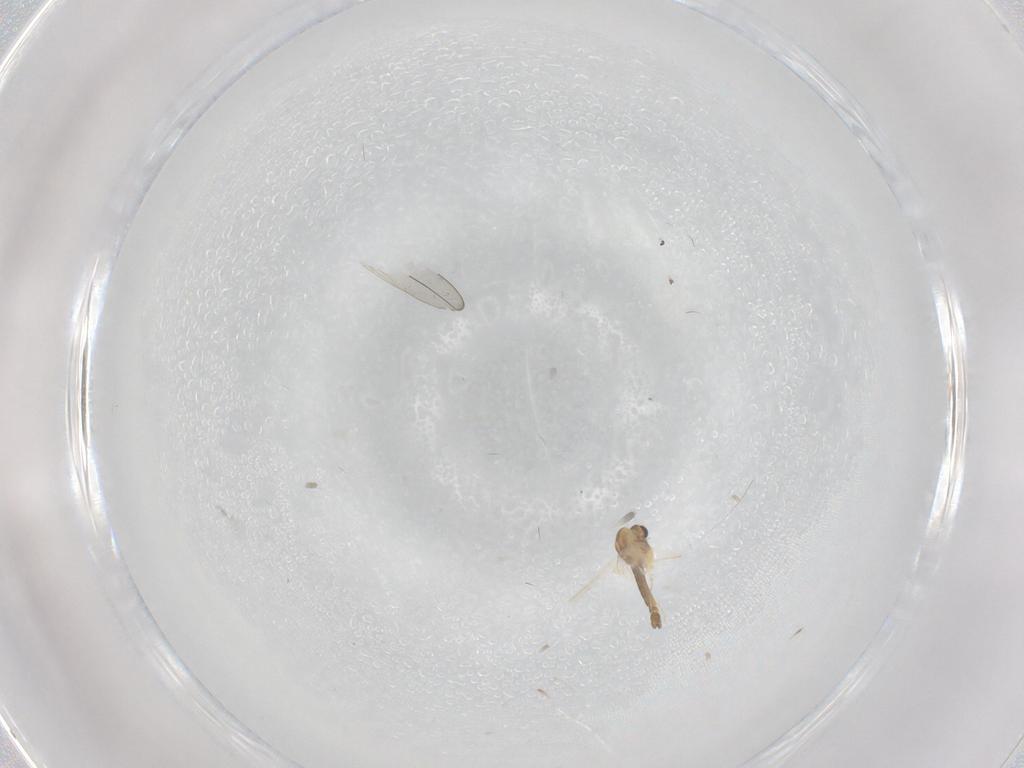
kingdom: Animalia
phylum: Arthropoda
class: Insecta
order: Diptera
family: Chironomidae
